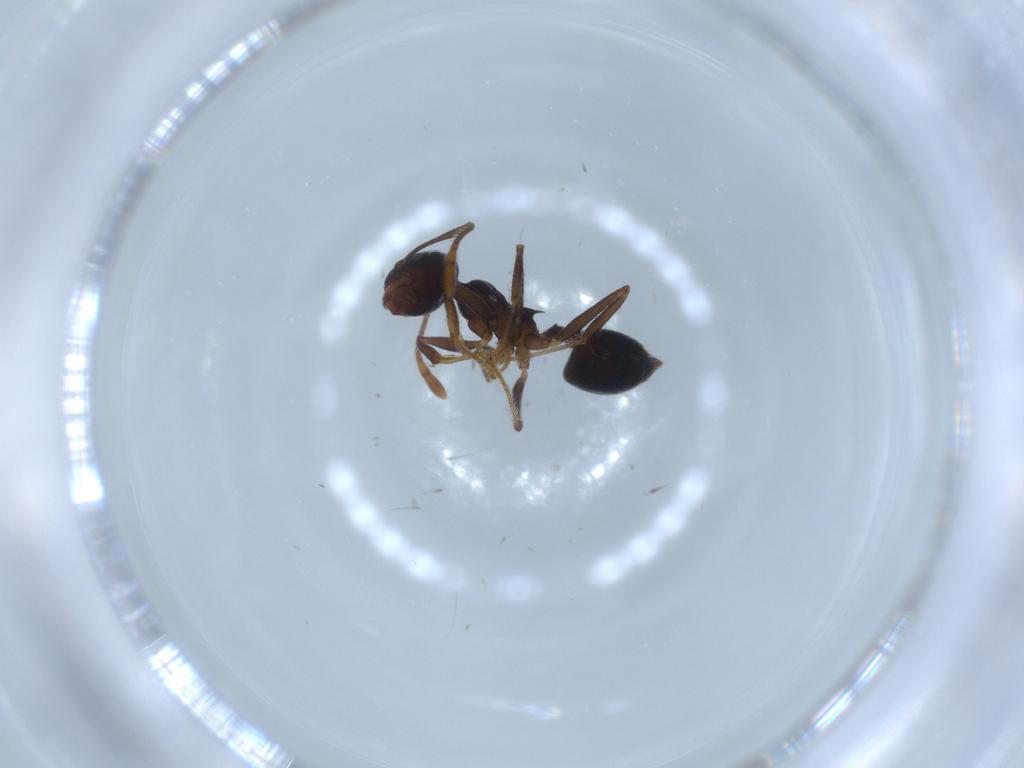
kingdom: Animalia
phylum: Arthropoda
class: Insecta
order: Hymenoptera
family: Formicidae
